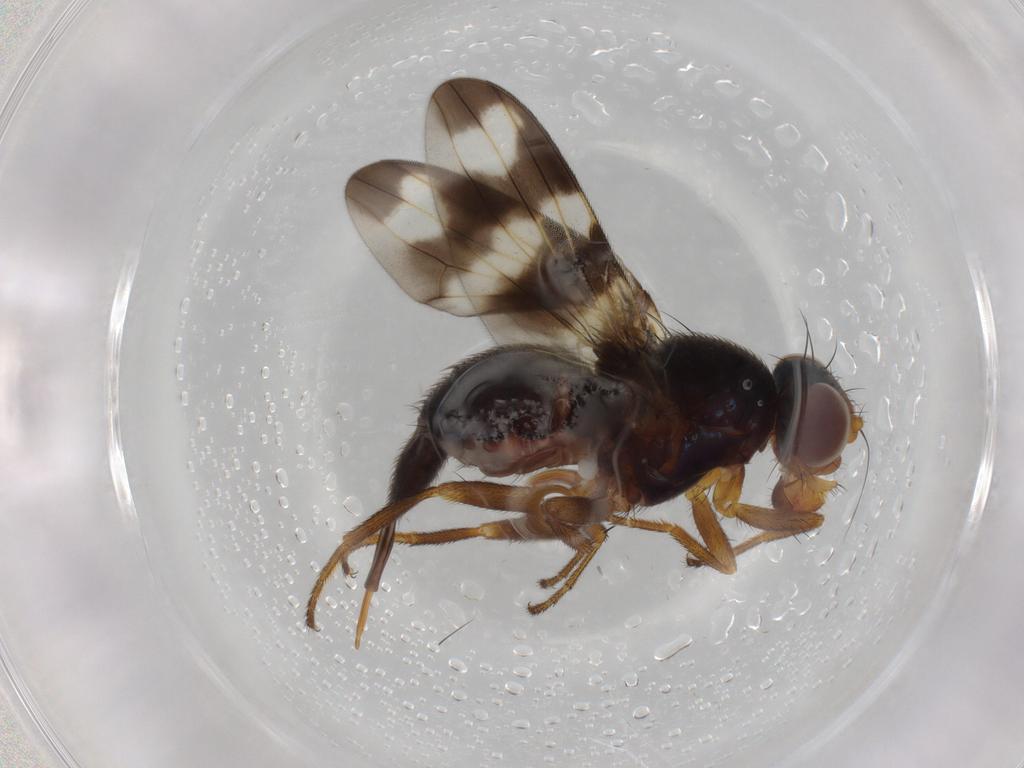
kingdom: Animalia
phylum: Arthropoda
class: Insecta
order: Diptera
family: Ulidiidae
